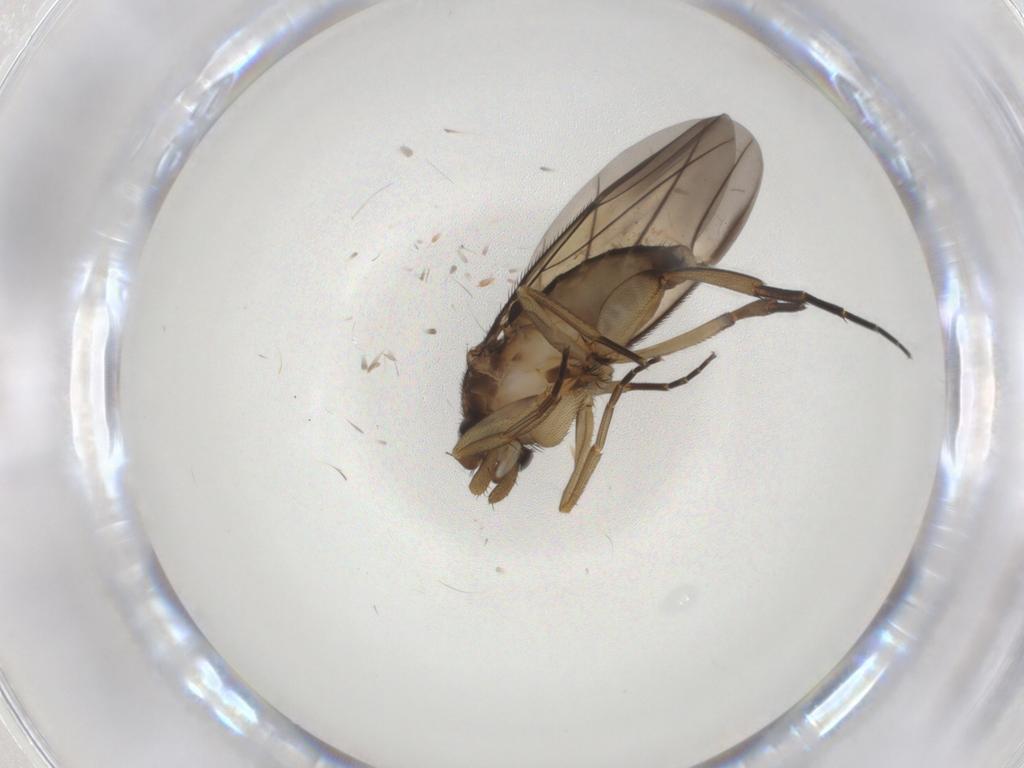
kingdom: Animalia
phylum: Arthropoda
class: Insecta
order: Diptera
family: Phoridae
